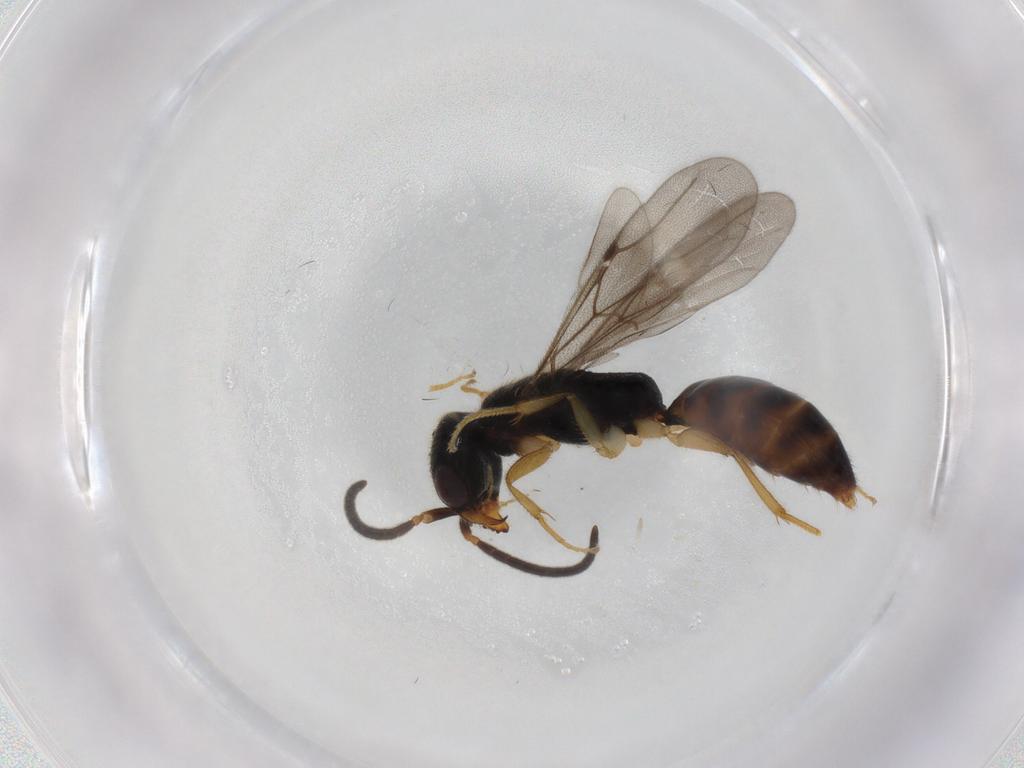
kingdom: Animalia
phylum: Arthropoda
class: Insecta
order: Hymenoptera
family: Bethylidae
